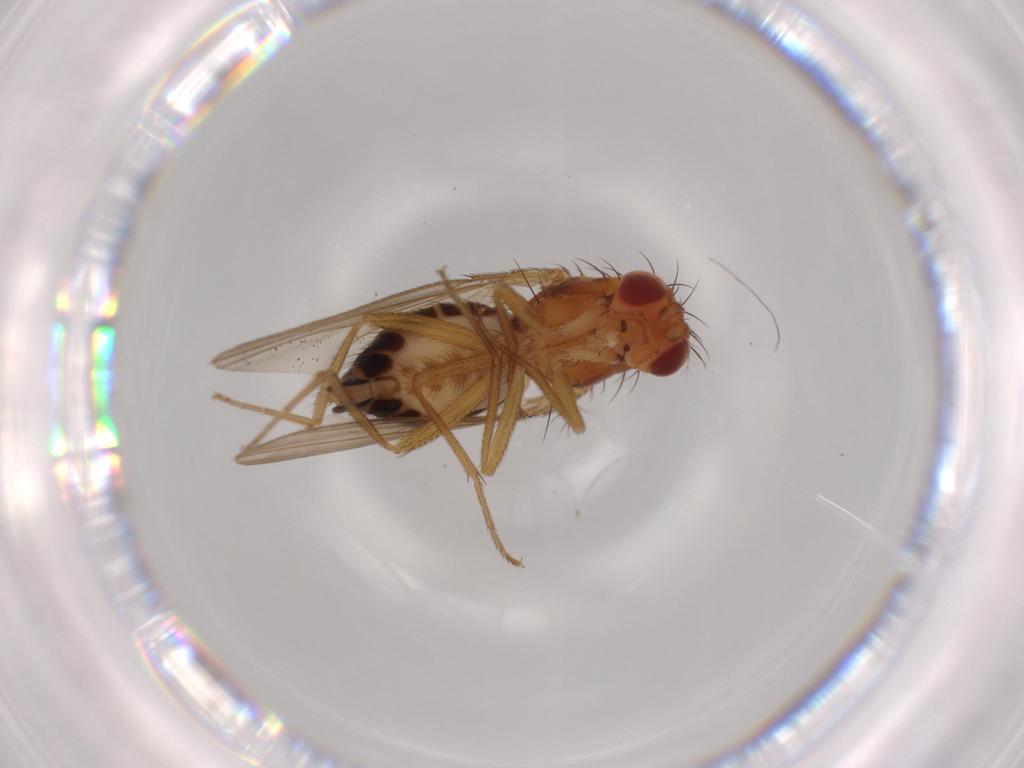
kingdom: Animalia
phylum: Arthropoda
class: Insecta
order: Diptera
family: Drosophilidae
